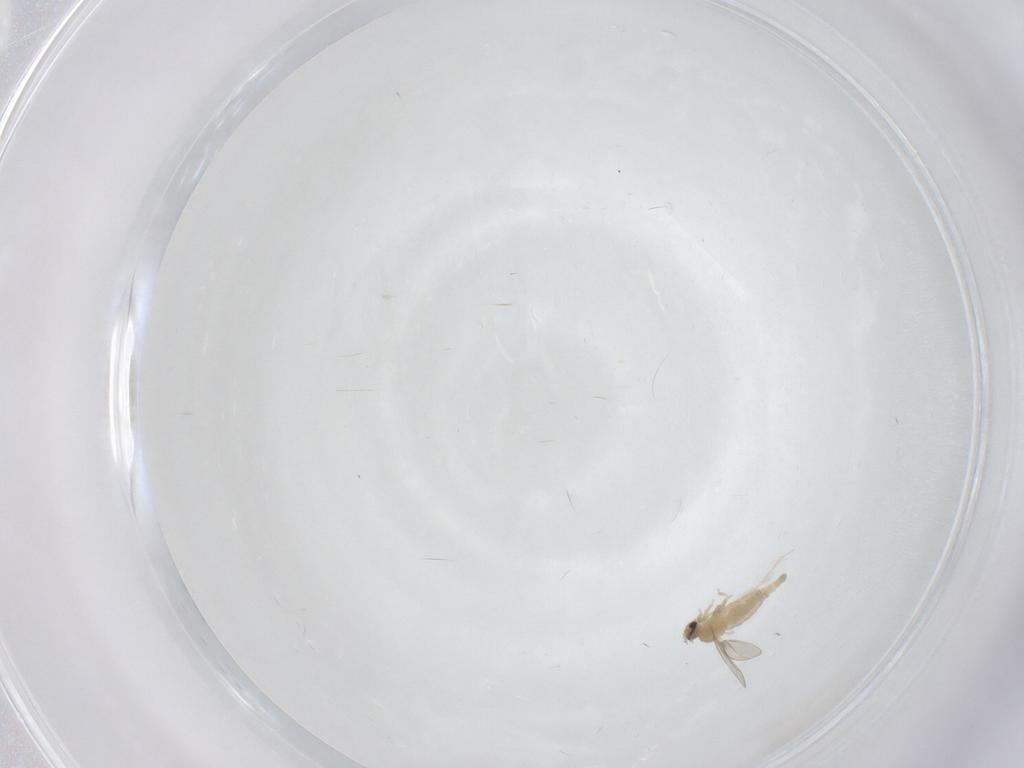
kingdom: Animalia
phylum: Arthropoda
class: Insecta
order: Diptera
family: Cecidomyiidae
